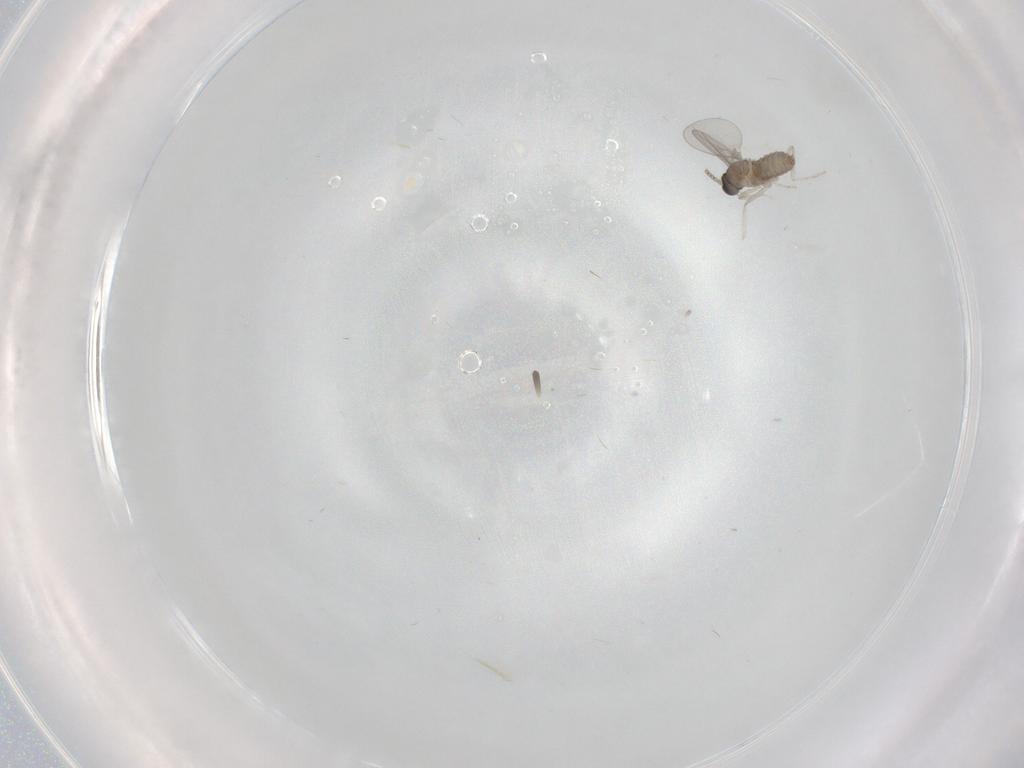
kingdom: Animalia
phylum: Arthropoda
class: Insecta
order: Diptera
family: Cecidomyiidae
